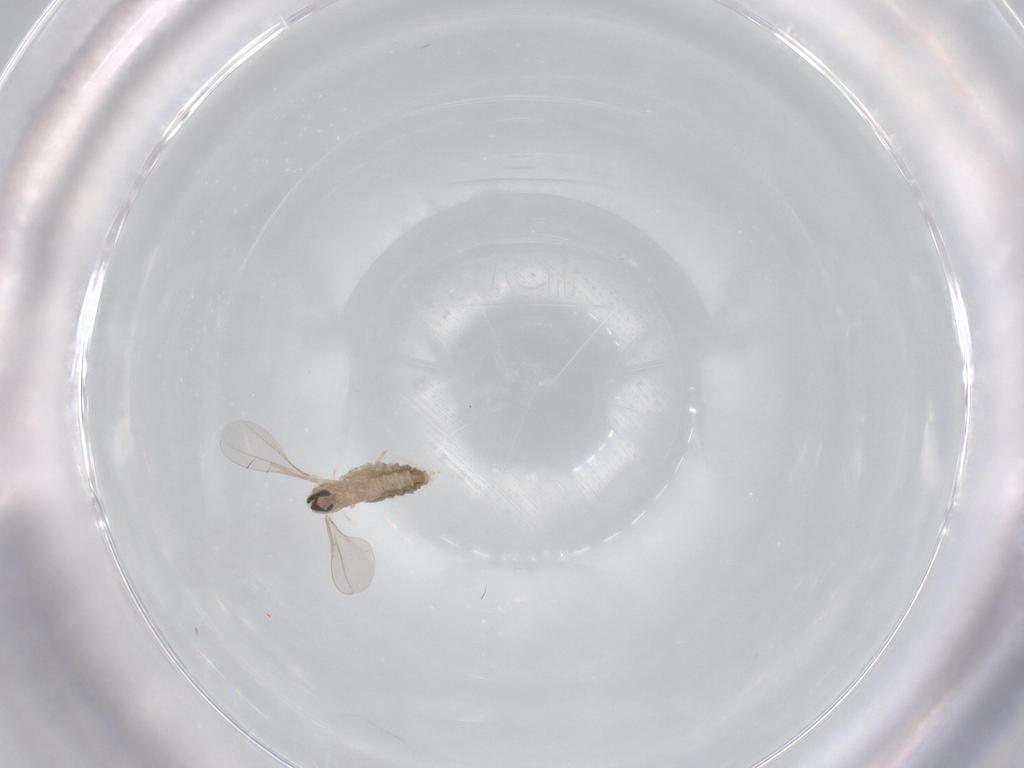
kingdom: Animalia
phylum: Arthropoda
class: Insecta
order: Diptera
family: Cecidomyiidae
